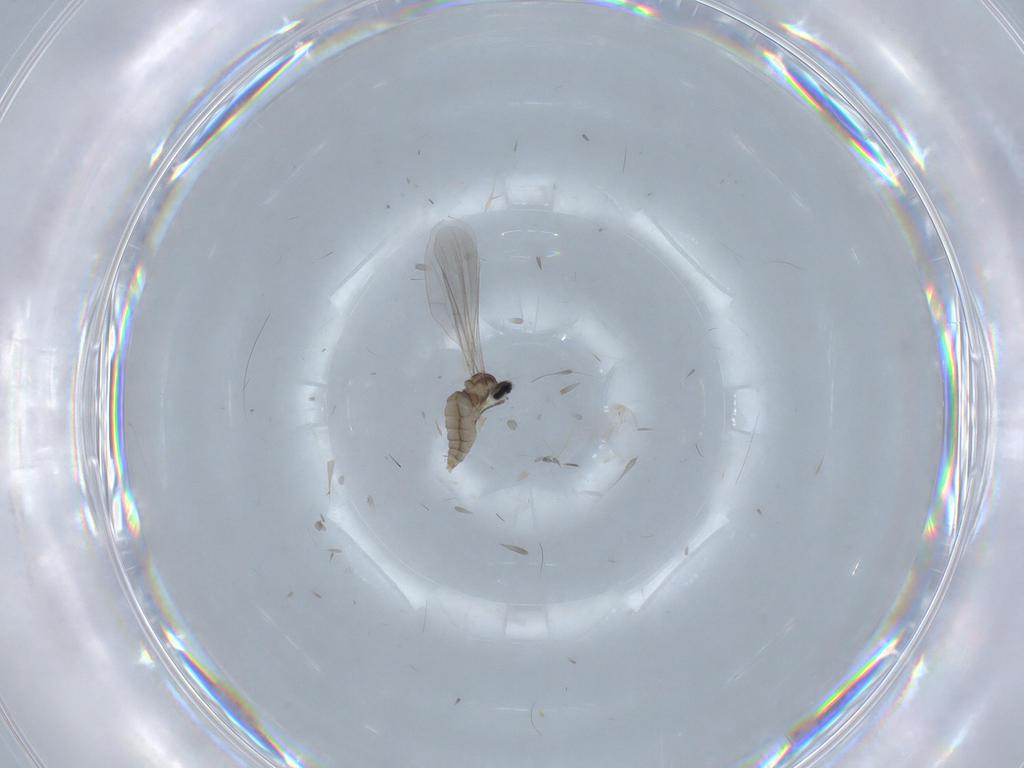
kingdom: Animalia
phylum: Arthropoda
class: Insecta
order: Diptera
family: Cecidomyiidae
